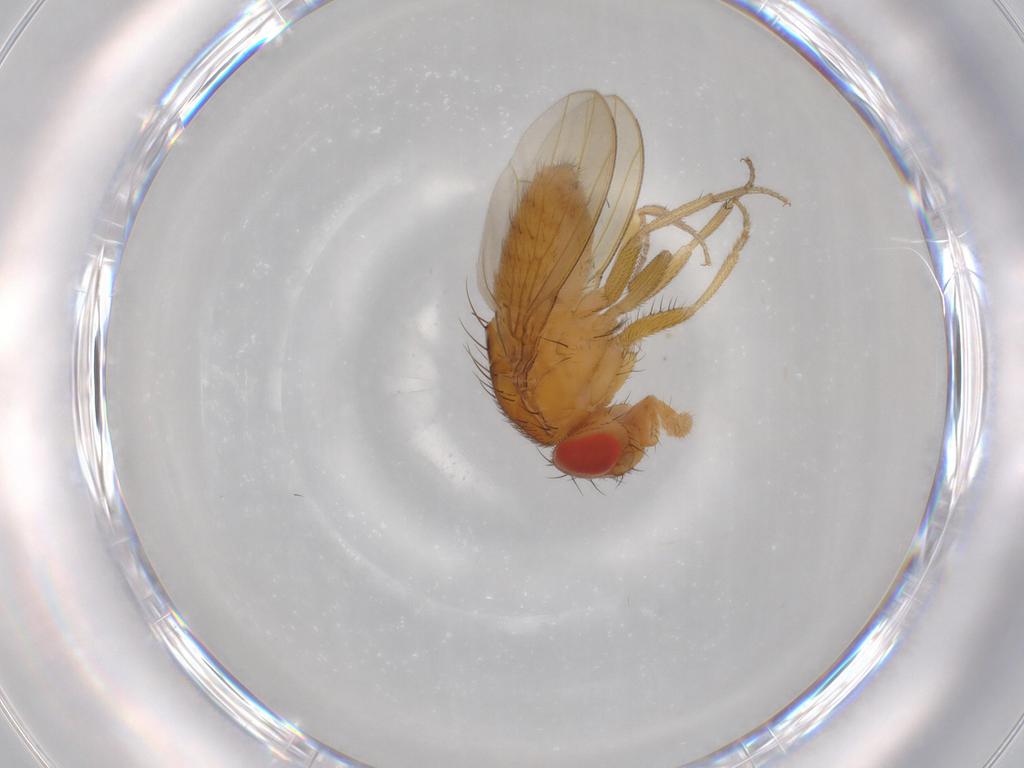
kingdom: Animalia
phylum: Arthropoda
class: Insecta
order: Diptera
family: Drosophilidae
